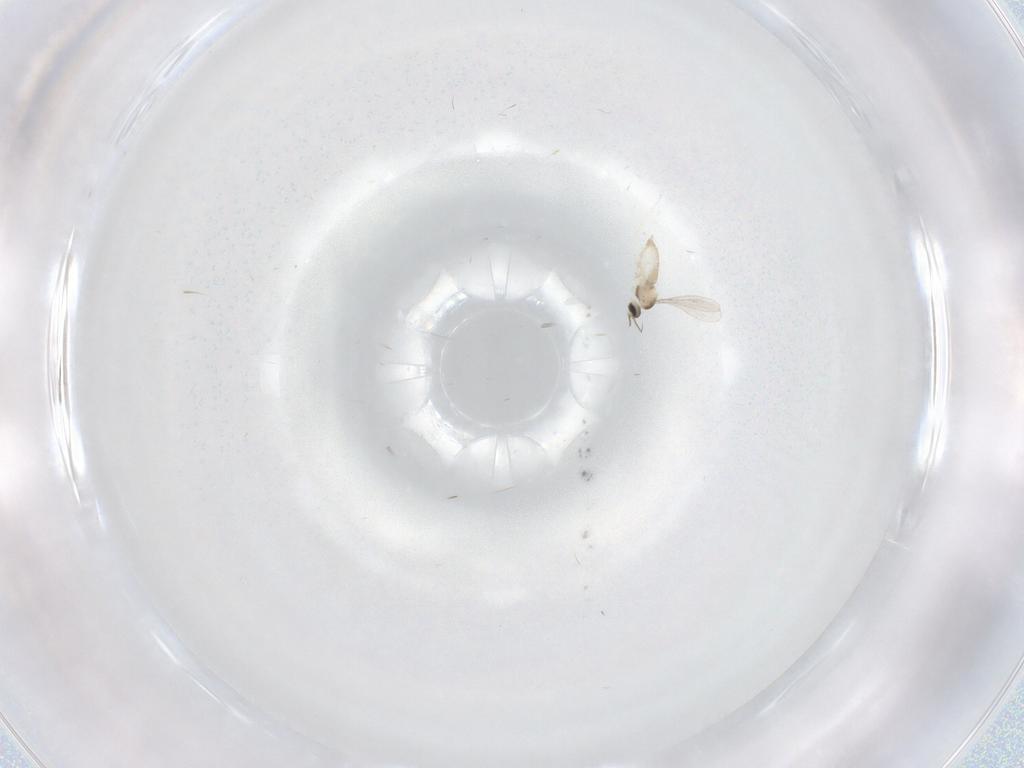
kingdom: Animalia
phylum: Arthropoda
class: Insecta
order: Diptera
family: Cecidomyiidae
